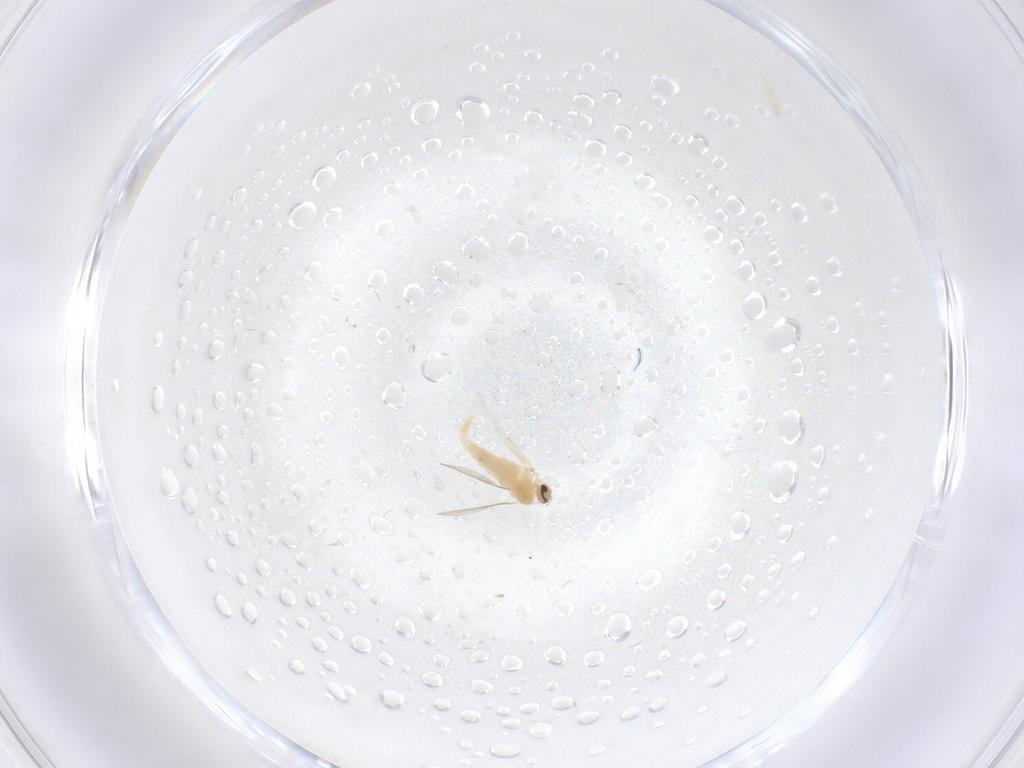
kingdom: Animalia
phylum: Arthropoda
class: Insecta
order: Diptera
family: Cecidomyiidae
